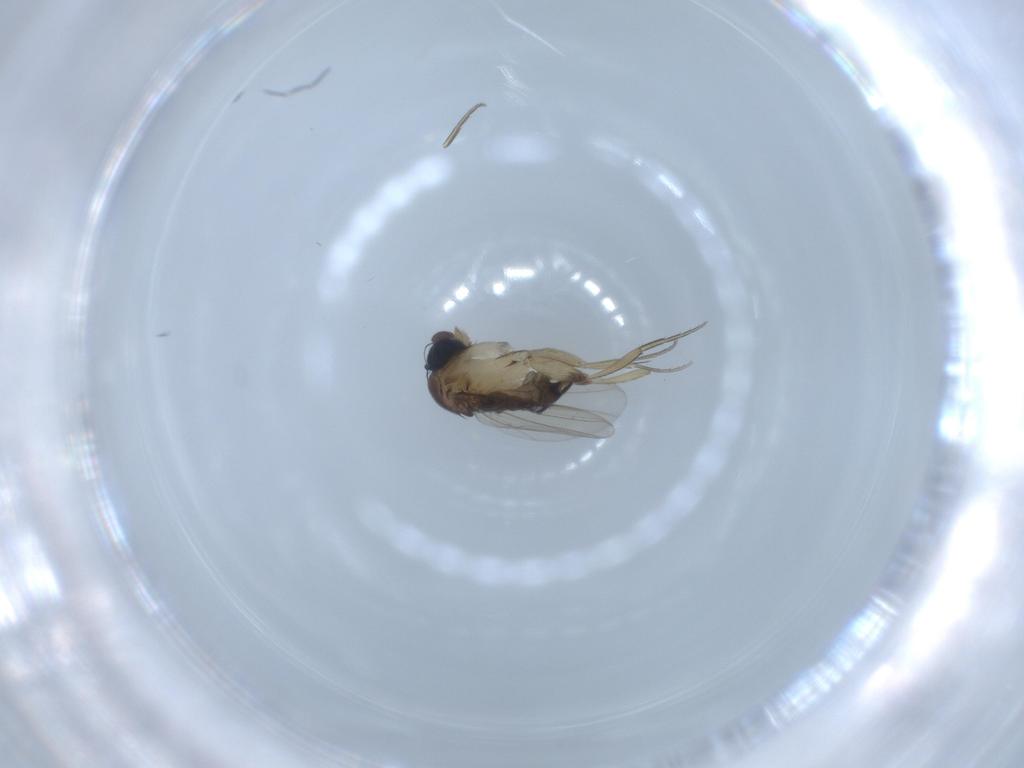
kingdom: Animalia
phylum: Arthropoda
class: Insecta
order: Diptera
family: Phoridae
